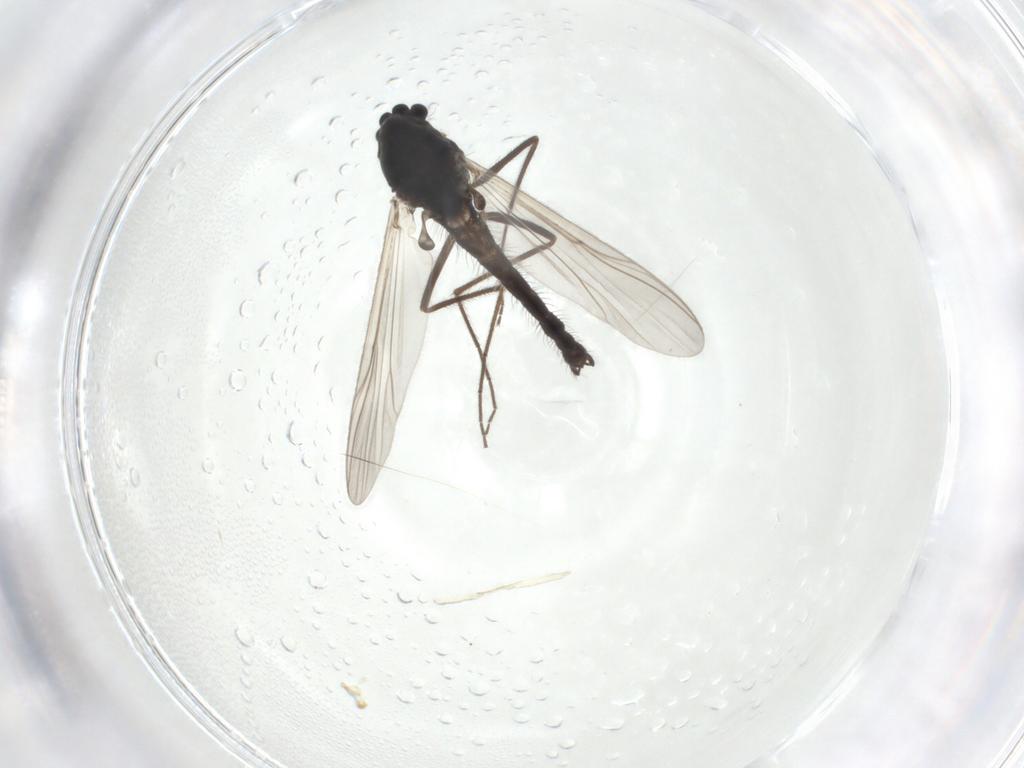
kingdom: Animalia
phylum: Arthropoda
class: Insecta
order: Diptera
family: Chironomidae
